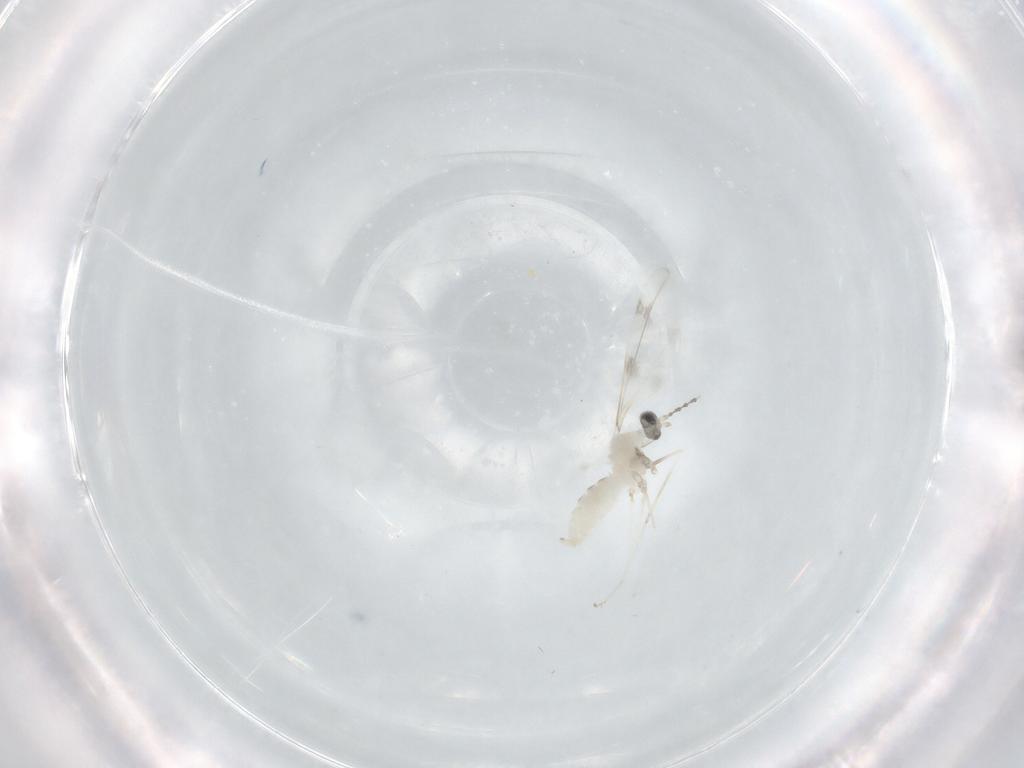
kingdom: Animalia
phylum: Arthropoda
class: Insecta
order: Diptera
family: Cecidomyiidae
